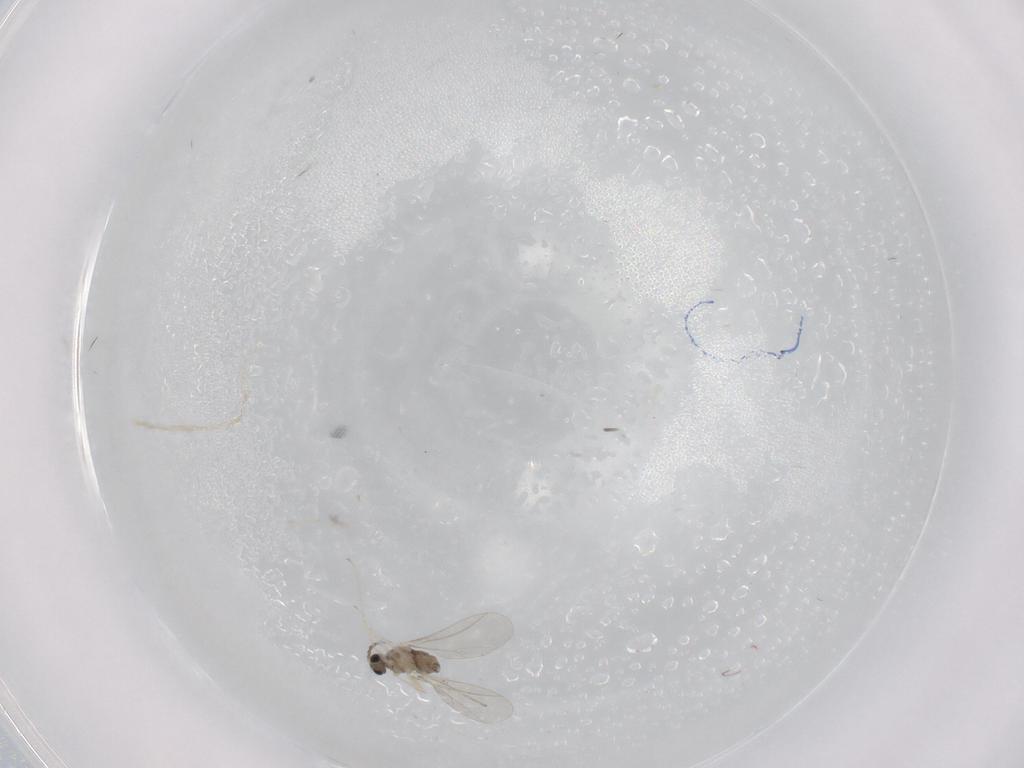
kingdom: Animalia
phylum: Arthropoda
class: Insecta
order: Diptera
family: Cecidomyiidae
